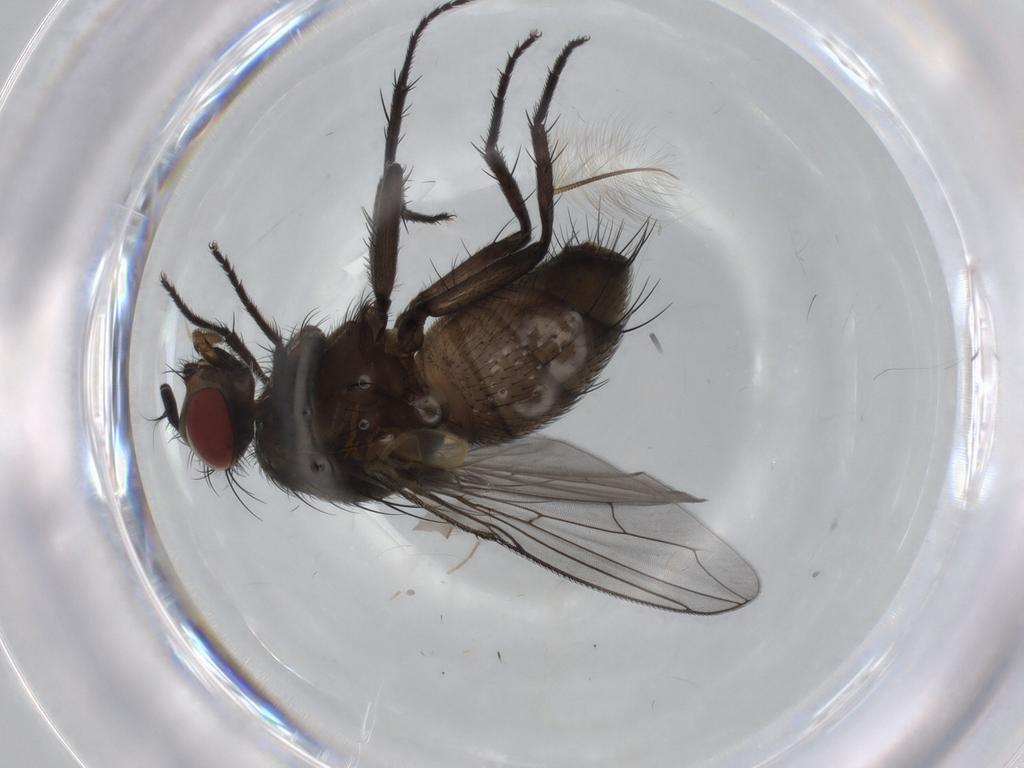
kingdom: Animalia
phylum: Arthropoda
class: Insecta
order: Diptera
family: Sarcophagidae
